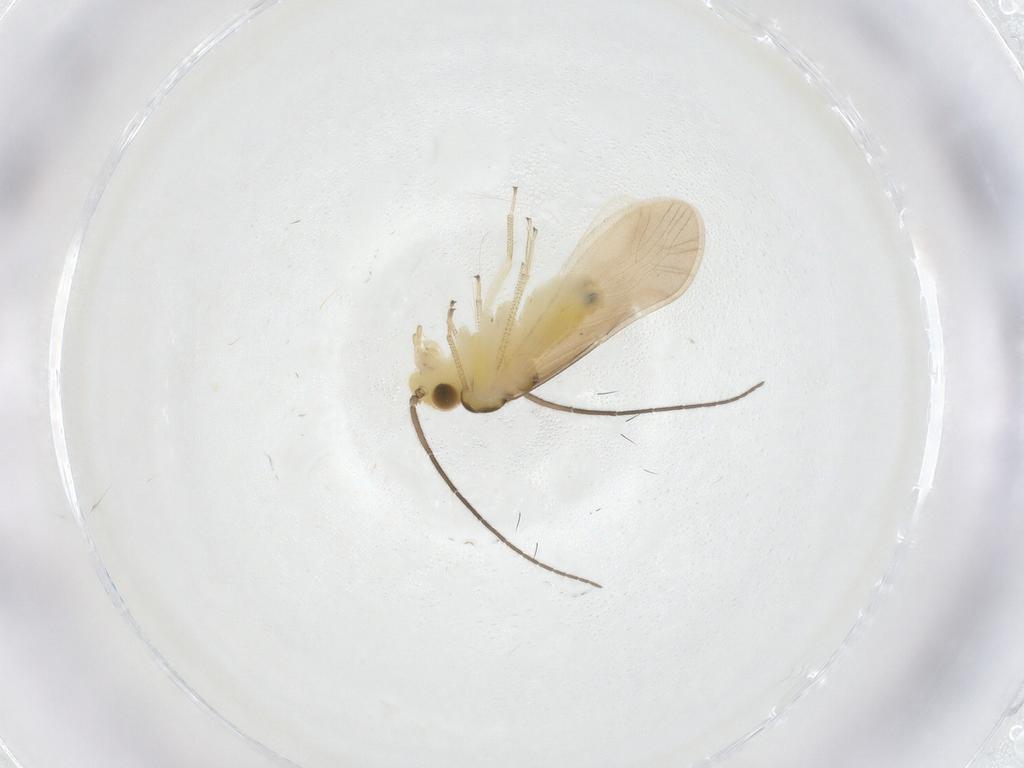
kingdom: Animalia
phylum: Arthropoda
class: Insecta
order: Psocodea
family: Caeciliusidae
